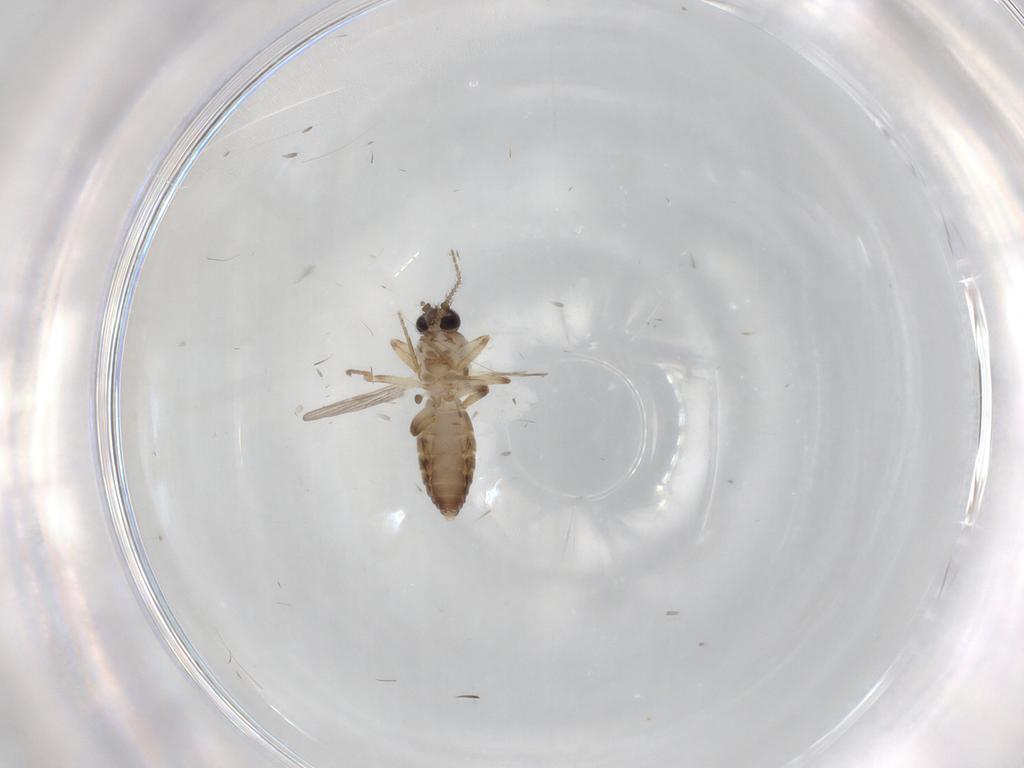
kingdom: Animalia
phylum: Arthropoda
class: Insecta
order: Diptera
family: Ceratopogonidae
